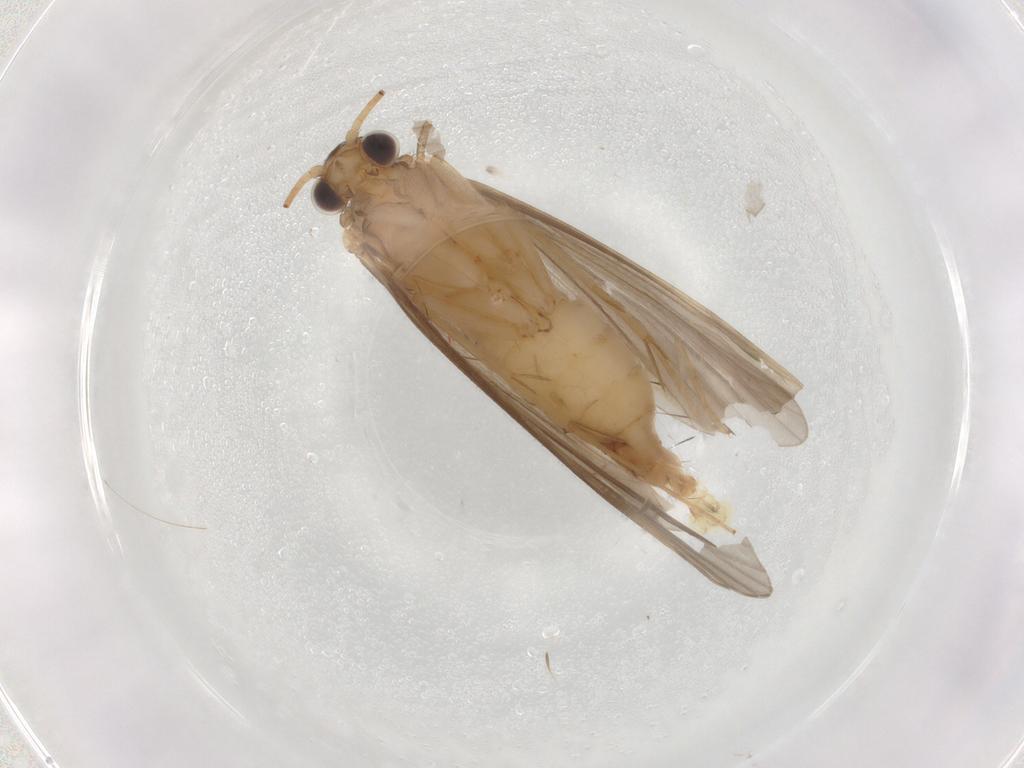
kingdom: Animalia
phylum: Arthropoda
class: Insecta
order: Trichoptera
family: Ecnomidae
